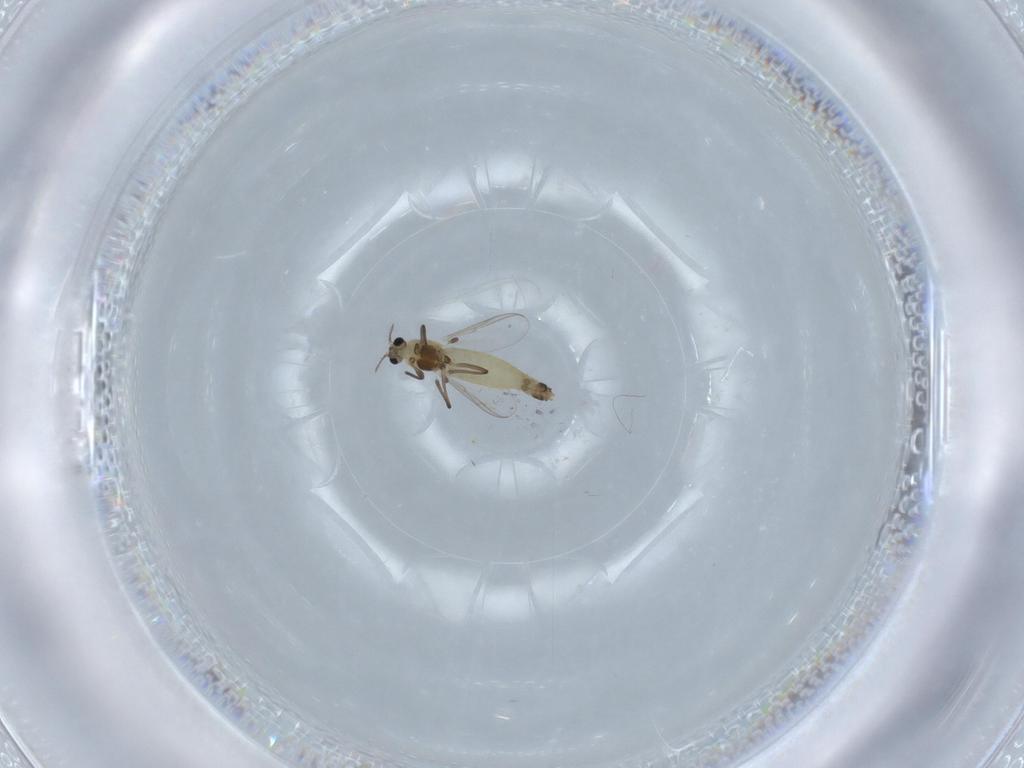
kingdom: Animalia
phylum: Arthropoda
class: Insecta
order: Diptera
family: Chironomidae
